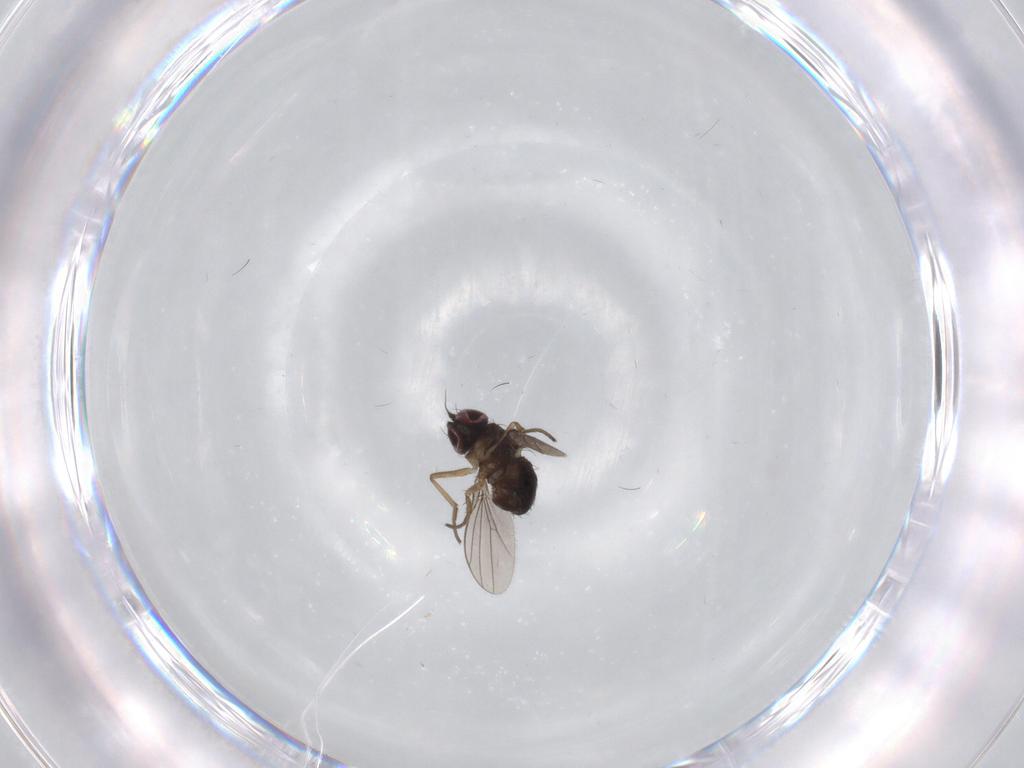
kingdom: Animalia
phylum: Arthropoda
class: Insecta
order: Diptera
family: Dolichopodidae
